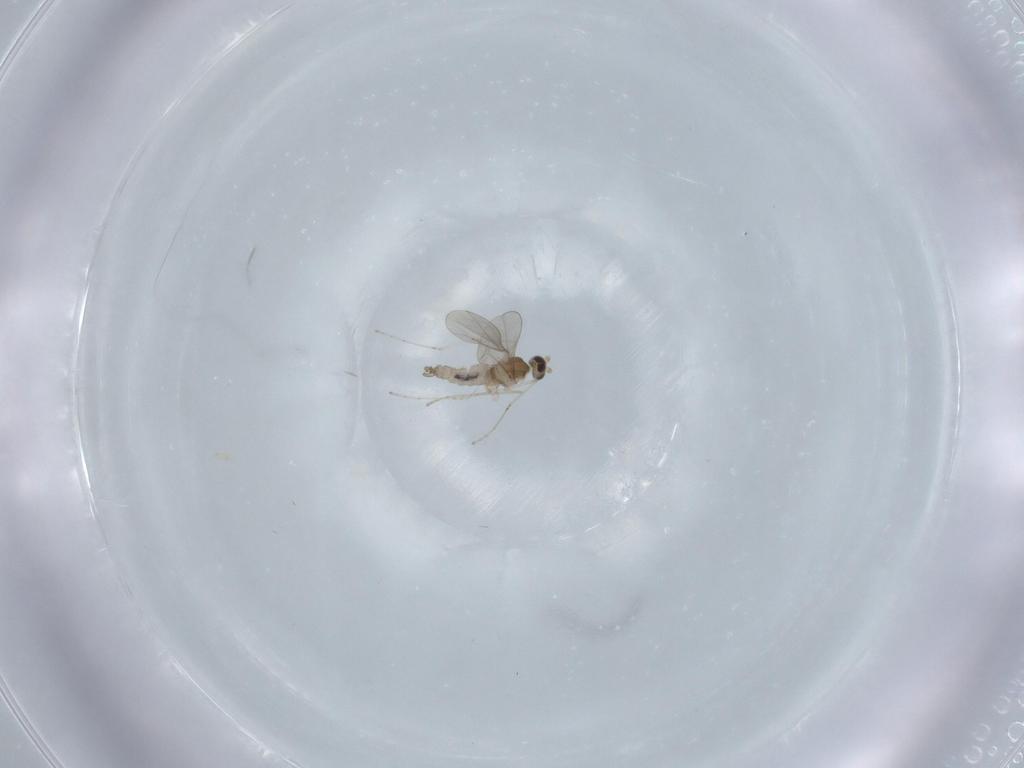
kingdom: Animalia
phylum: Arthropoda
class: Insecta
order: Diptera
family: Cecidomyiidae
